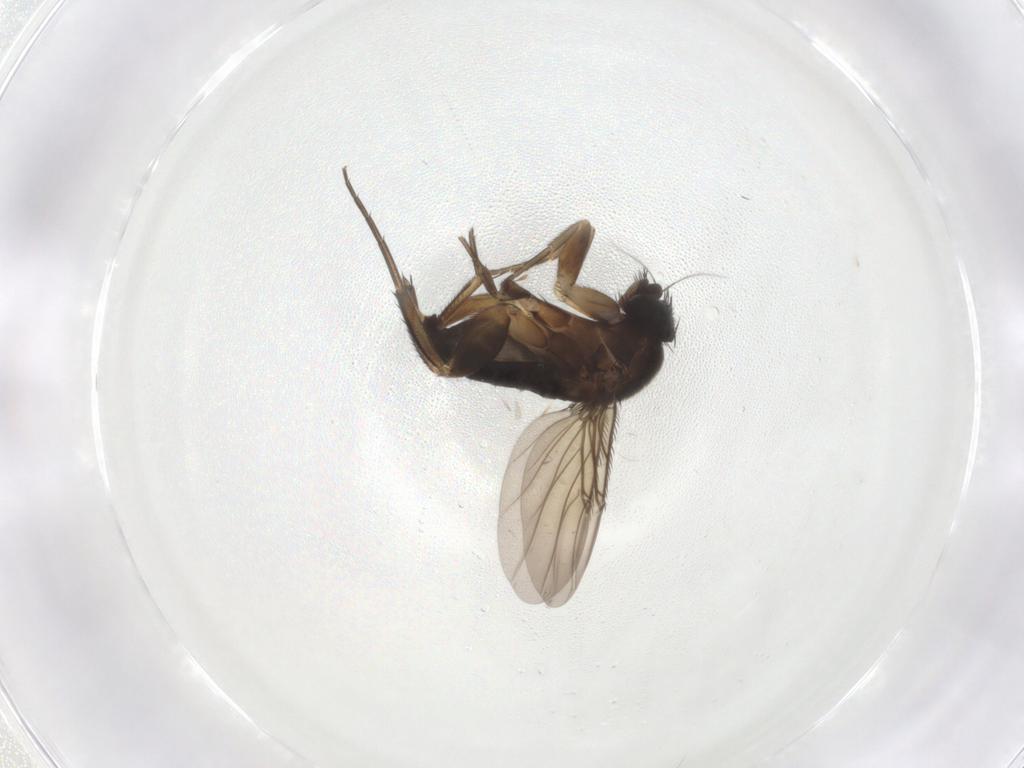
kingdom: Animalia
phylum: Arthropoda
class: Insecta
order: Diptera
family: Phoridae
